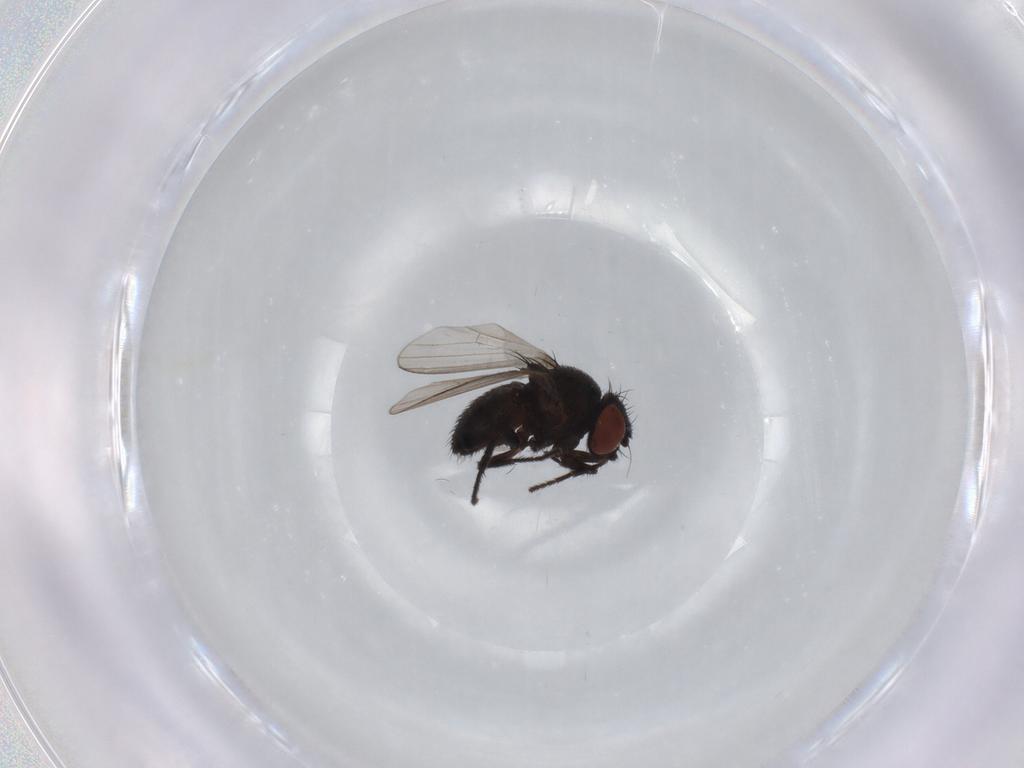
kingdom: Animalia
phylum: Arthropoda
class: Insecta
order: Diptera
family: Milichiidae
